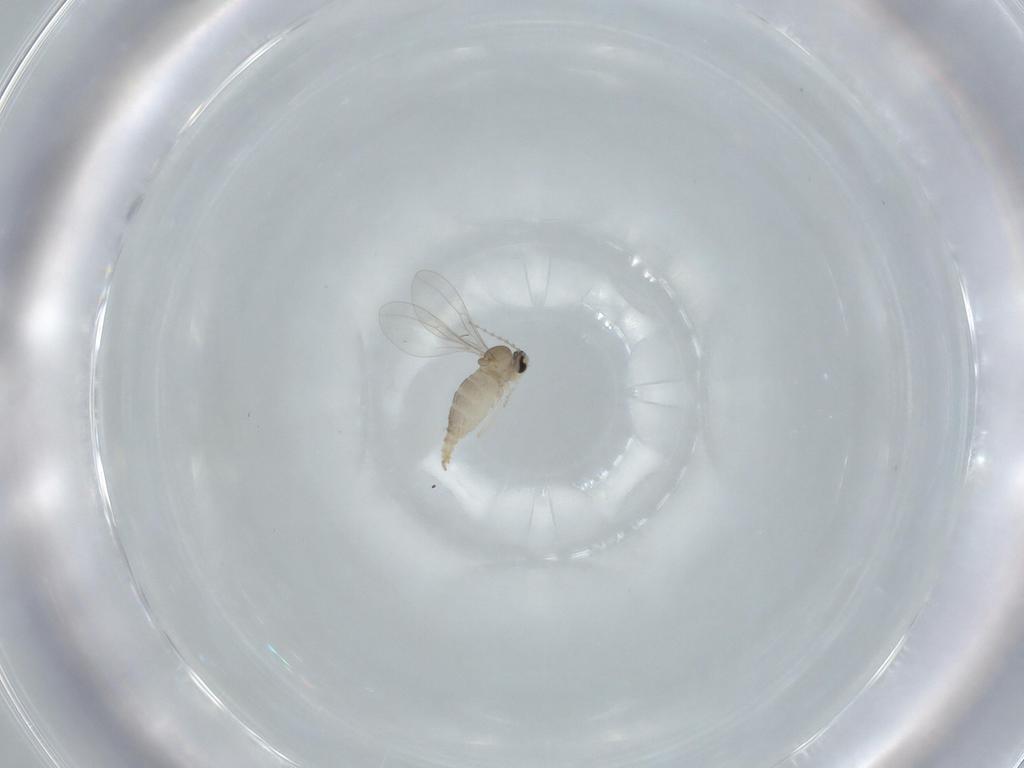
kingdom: Animalia
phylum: Arthropoda
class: Insecta
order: Diptera
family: Cecidomyiidae
